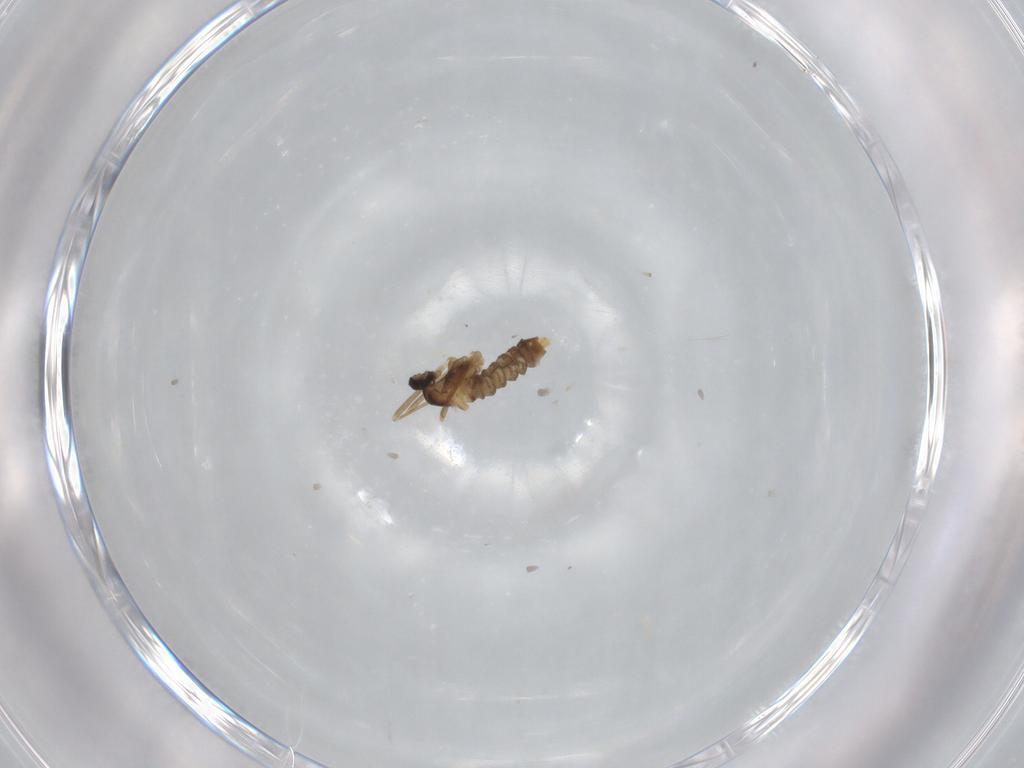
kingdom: Animalia
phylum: Arthropoda
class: Insecta
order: Diptera
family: Cecidomyiidae
